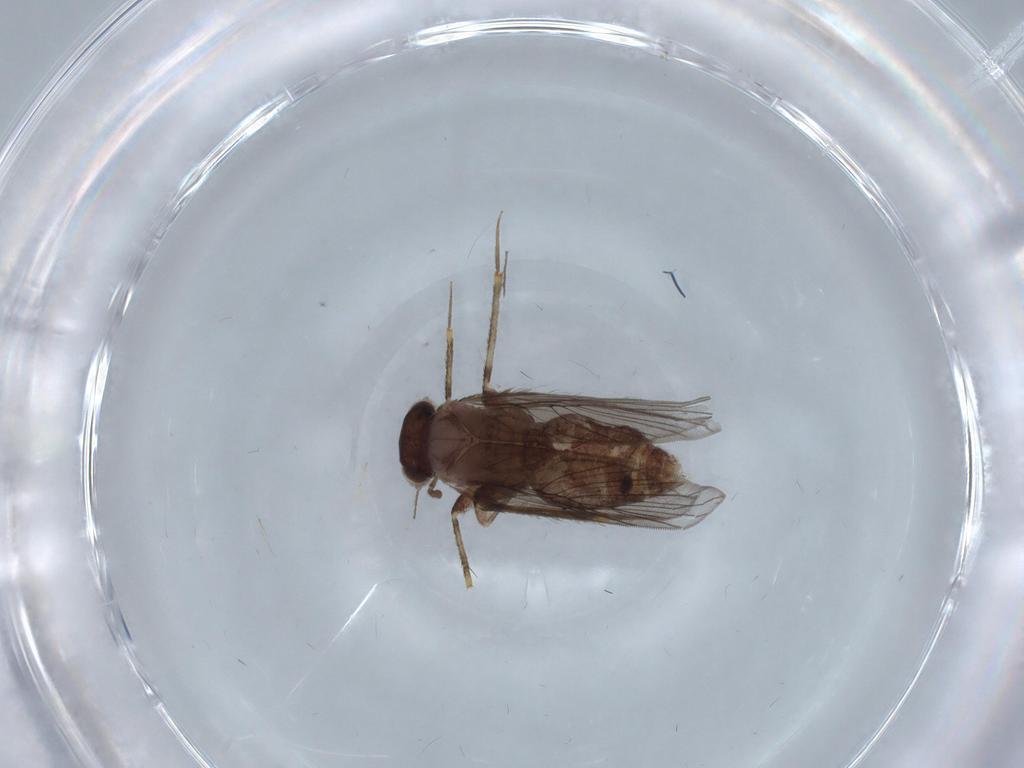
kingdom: Animalia
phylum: Arthropoda
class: Insecta
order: Psocodea
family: Lepidopsocidae
